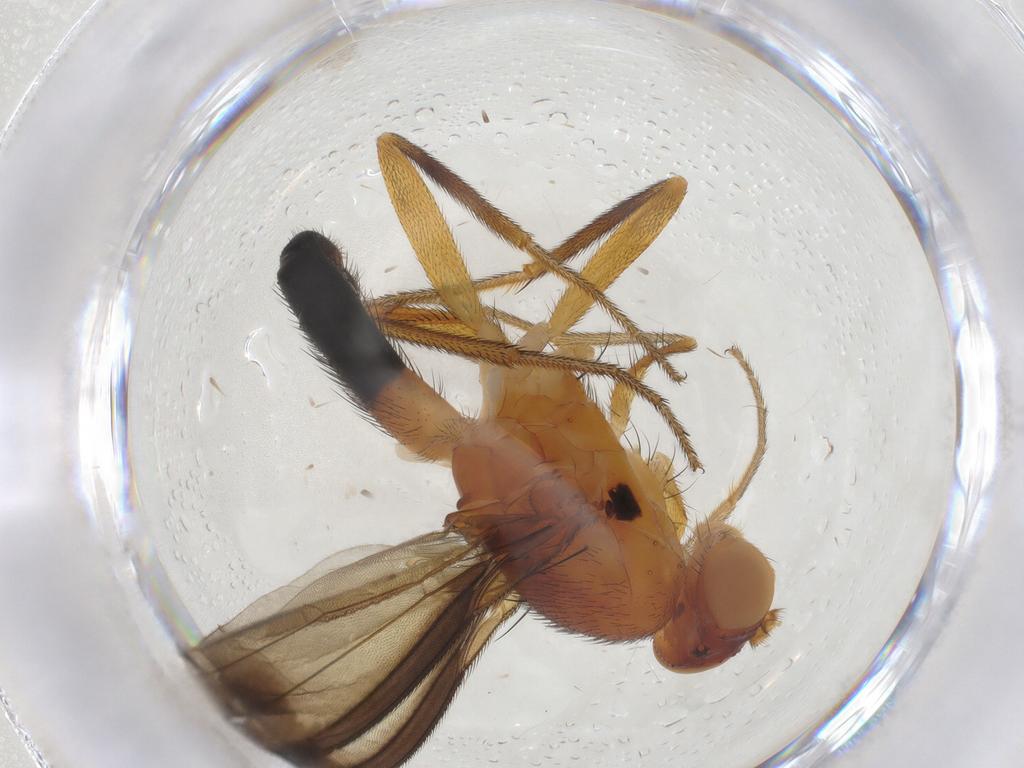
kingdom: Animalia
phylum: Arthropoda
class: Insecta
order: Diptera
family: Clusiidae
